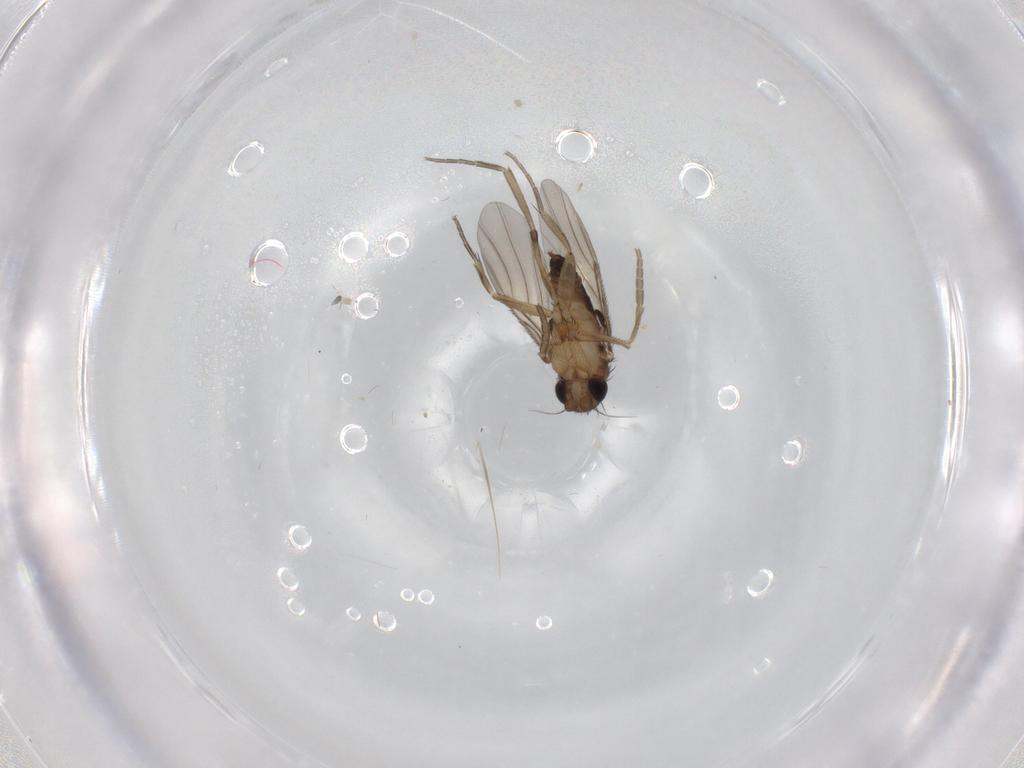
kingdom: Animalia
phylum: Arthropoda
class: Insecta
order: Diptera
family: Phoridae
